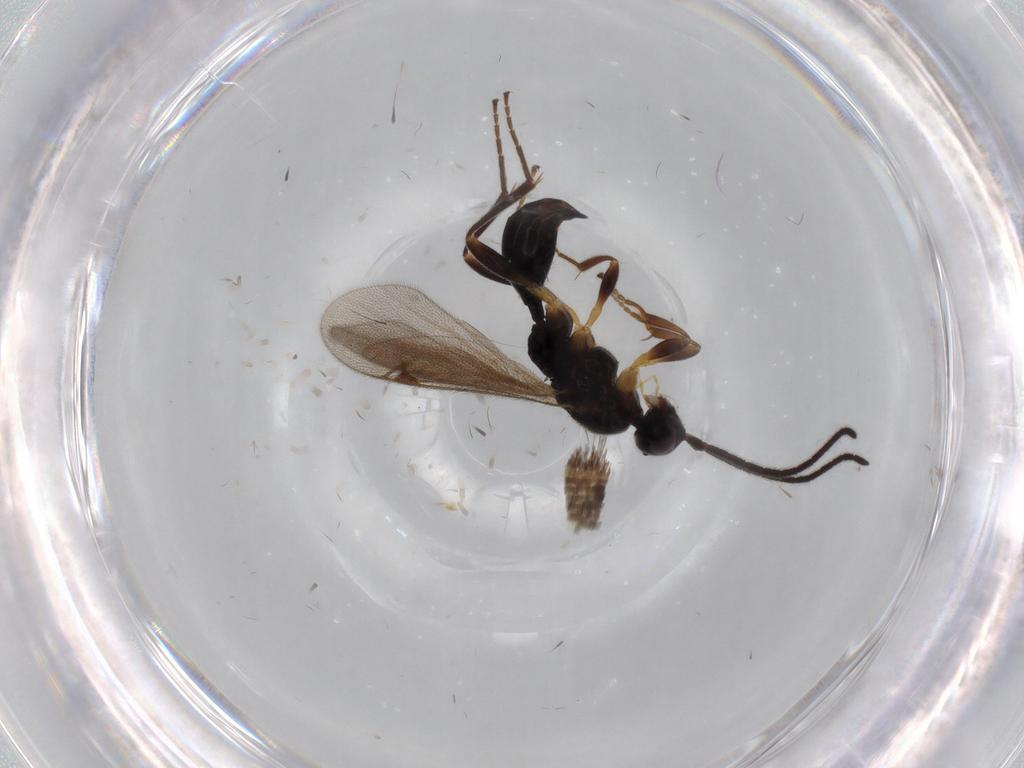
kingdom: Animalia
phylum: Arthropoda
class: Insecta
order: Hymenoptera
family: Proctotrupidae
